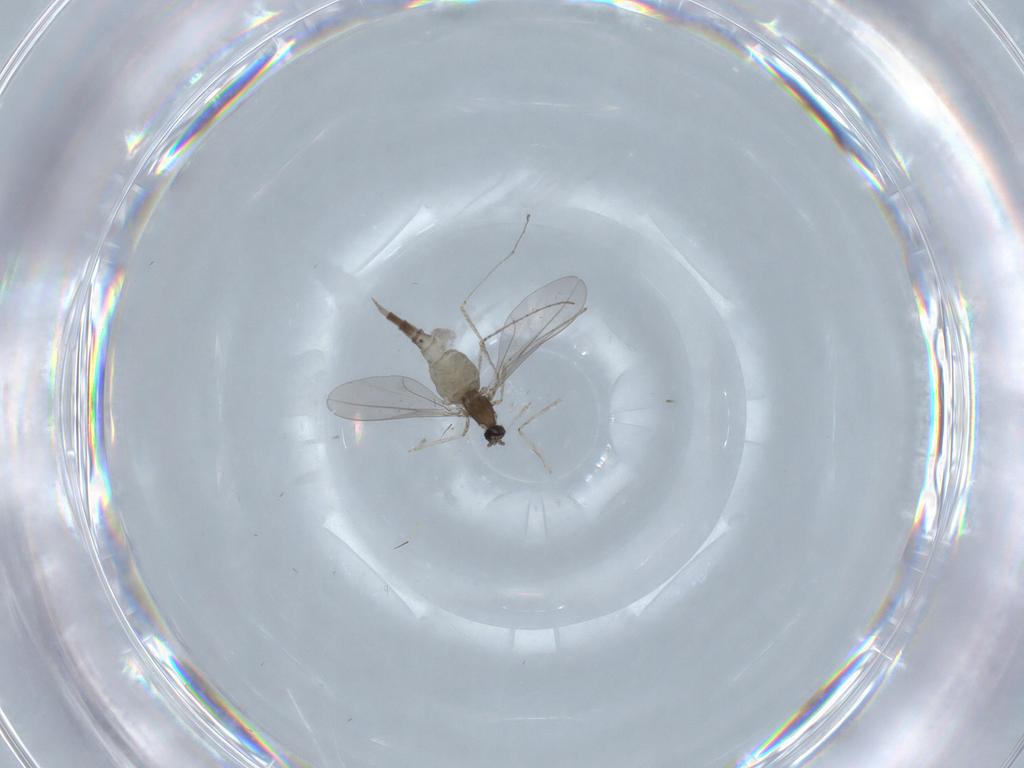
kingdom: Animalia
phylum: Arthropoda
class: Insecta
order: Diptera
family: Cecidomyiidae
